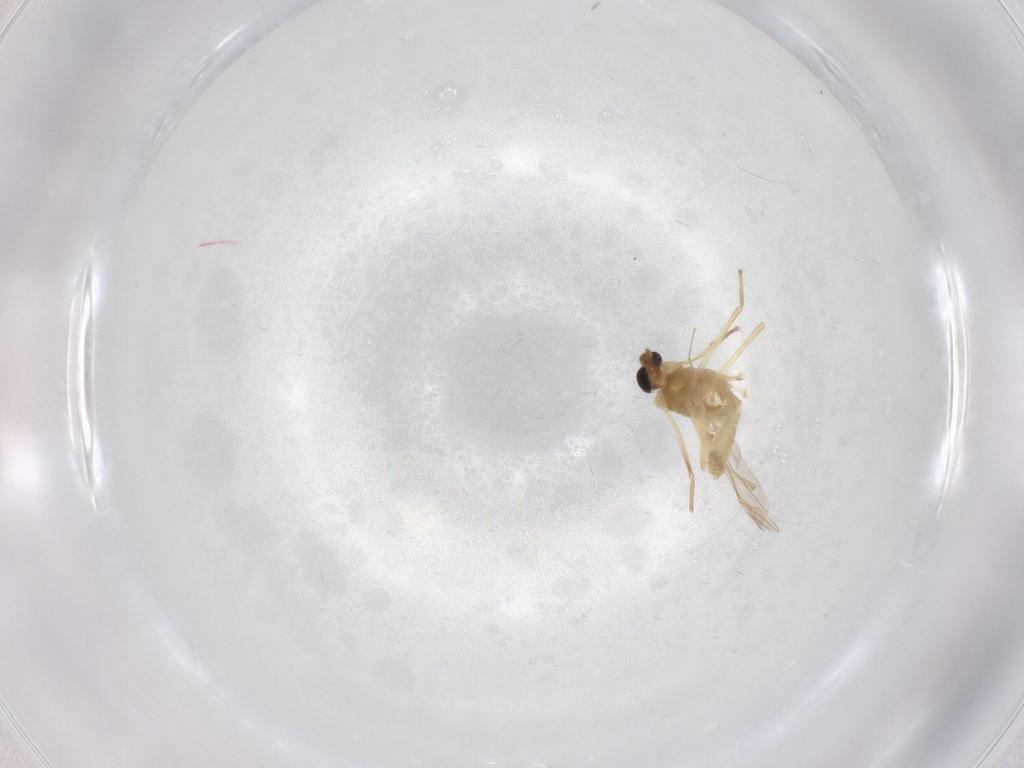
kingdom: Animalia
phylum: Arthropoda
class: Insecta
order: Diptera
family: Chironomidae
